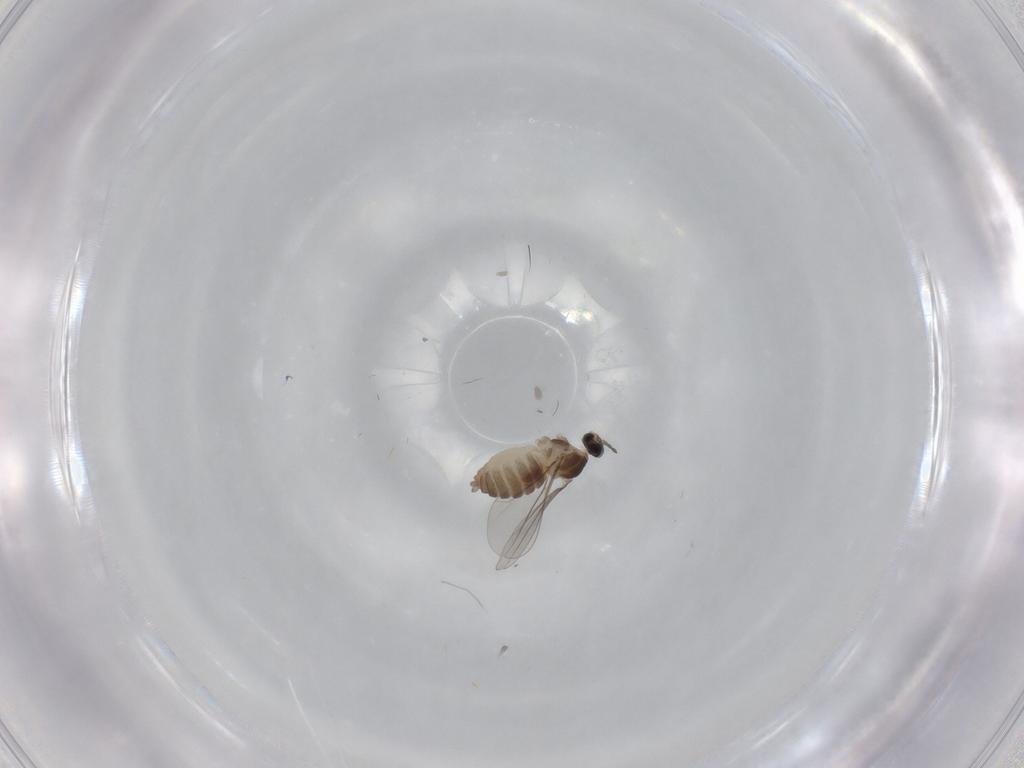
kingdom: Animalia
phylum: Arthropoda
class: Insecta
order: Diptera
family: Cecidomyiidae
